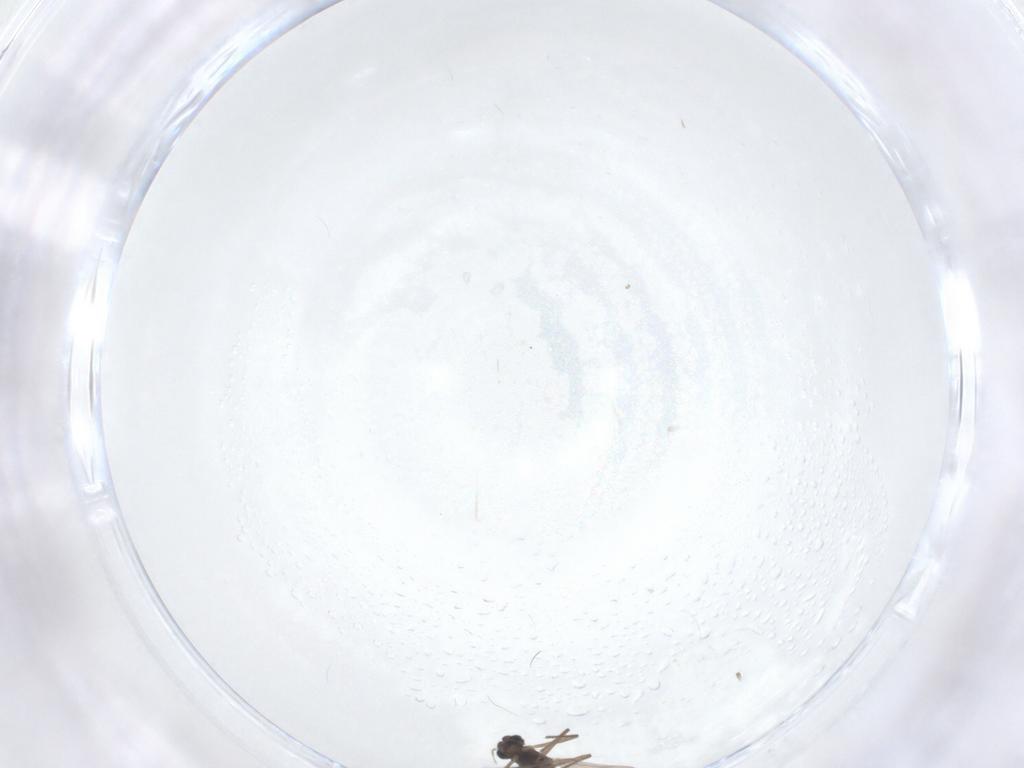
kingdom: Animalia
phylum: Arthropoda
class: Insecta
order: Diptera
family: Chironomidae
